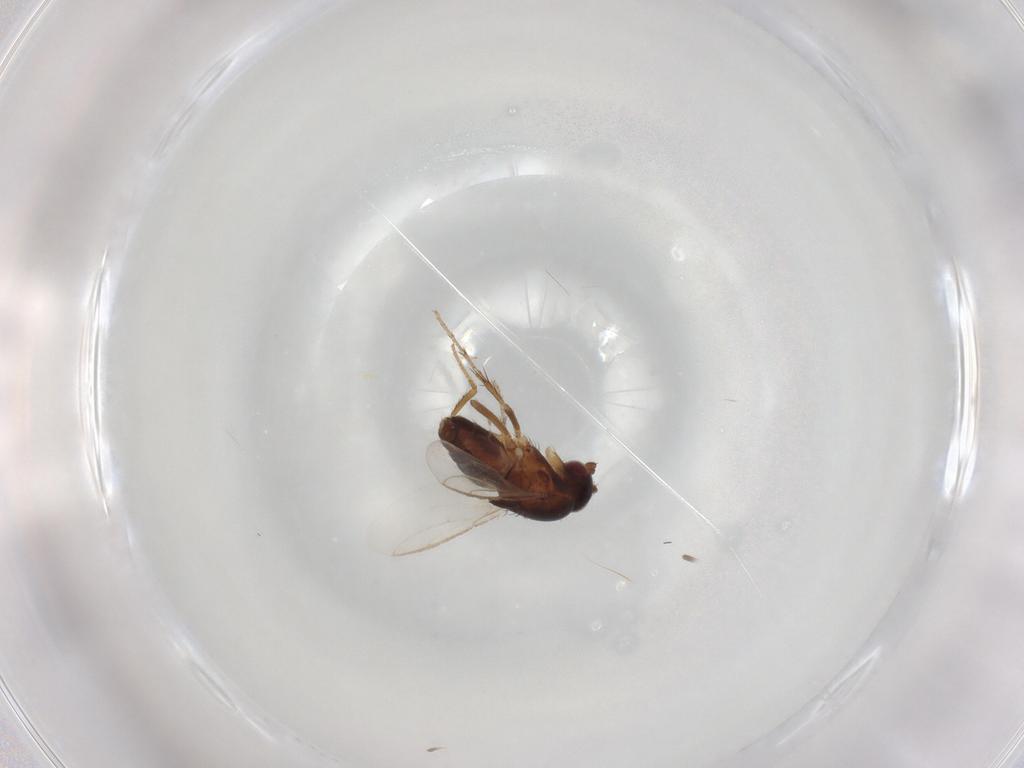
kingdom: Animalia
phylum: Arthropoda
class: Insecta
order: Diptera
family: Sphaeroceridae
